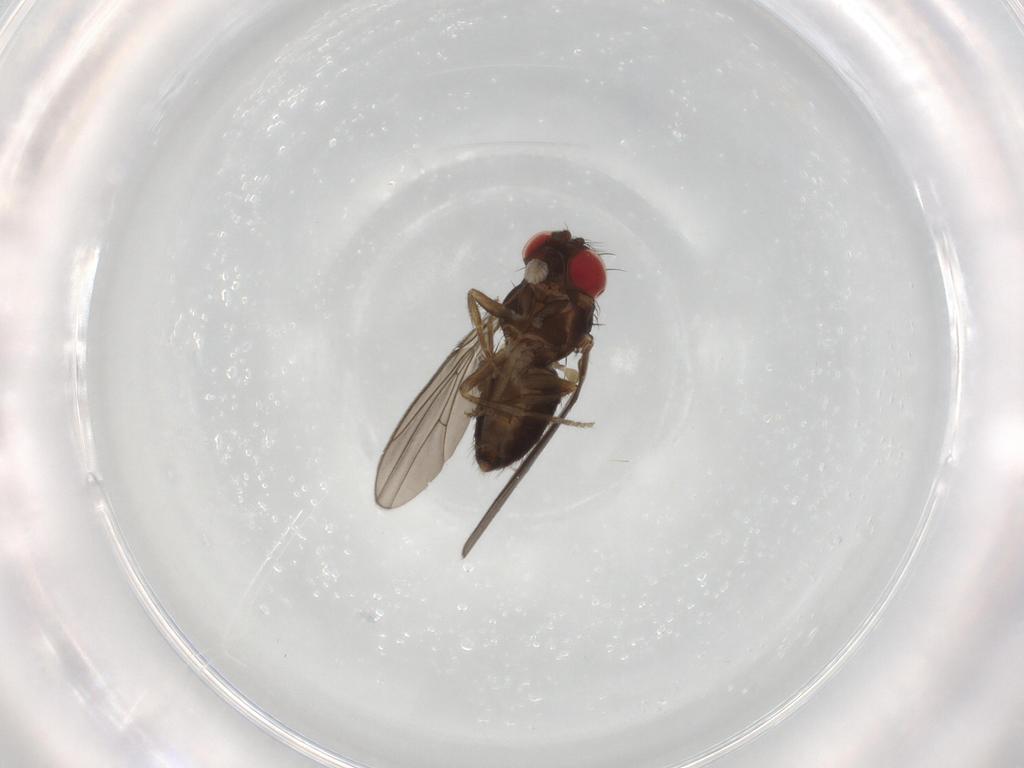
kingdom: Animalia
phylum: Arthropoda
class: Insecta
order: Diptera
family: Drosophilidae
